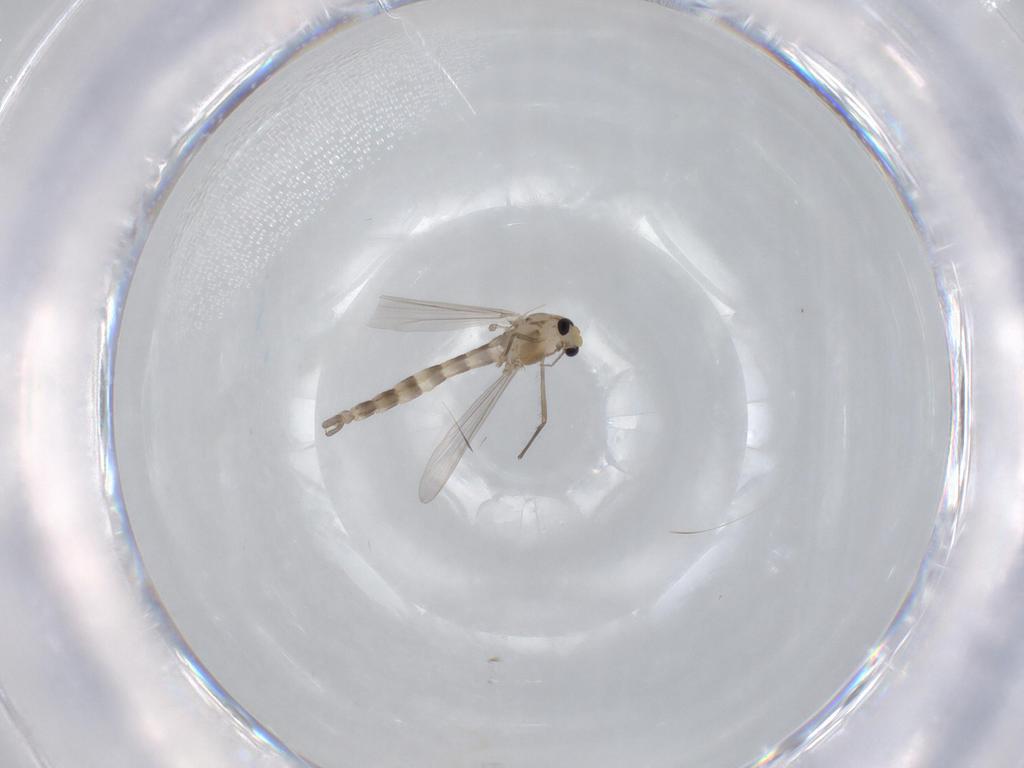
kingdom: Animalia
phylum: Arthropoda
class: Insecta
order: Diptera
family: Chironomidae
